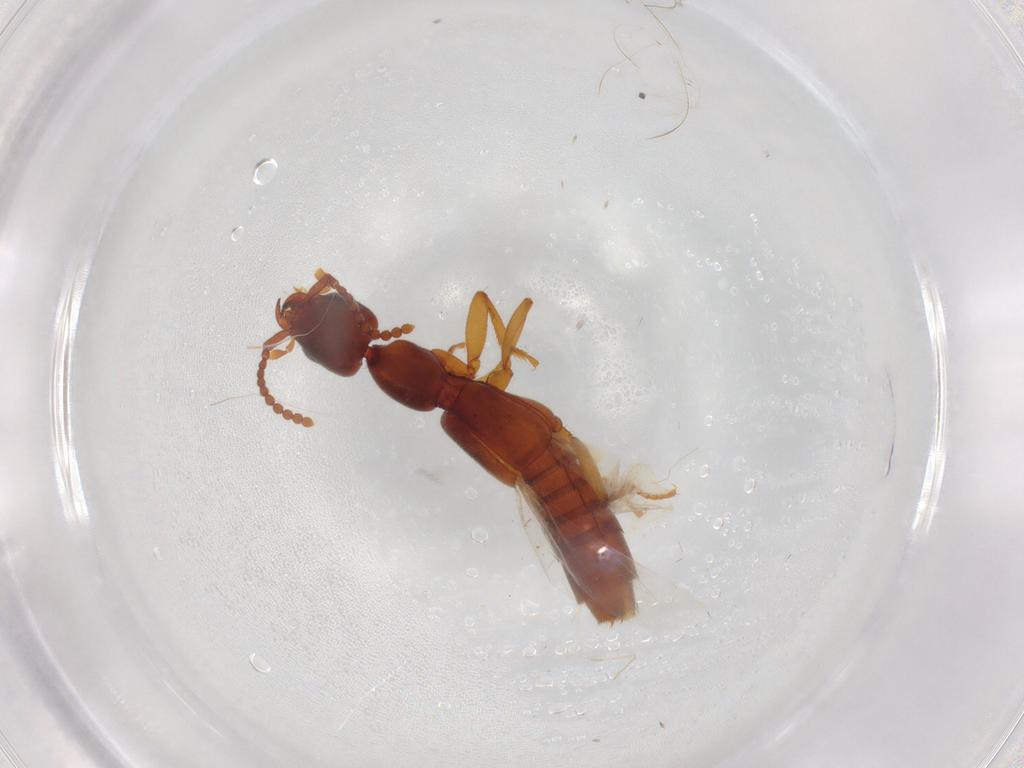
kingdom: Animalia
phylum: Arthropoda
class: Insecta
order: Coleoptera
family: Staphylinidae
